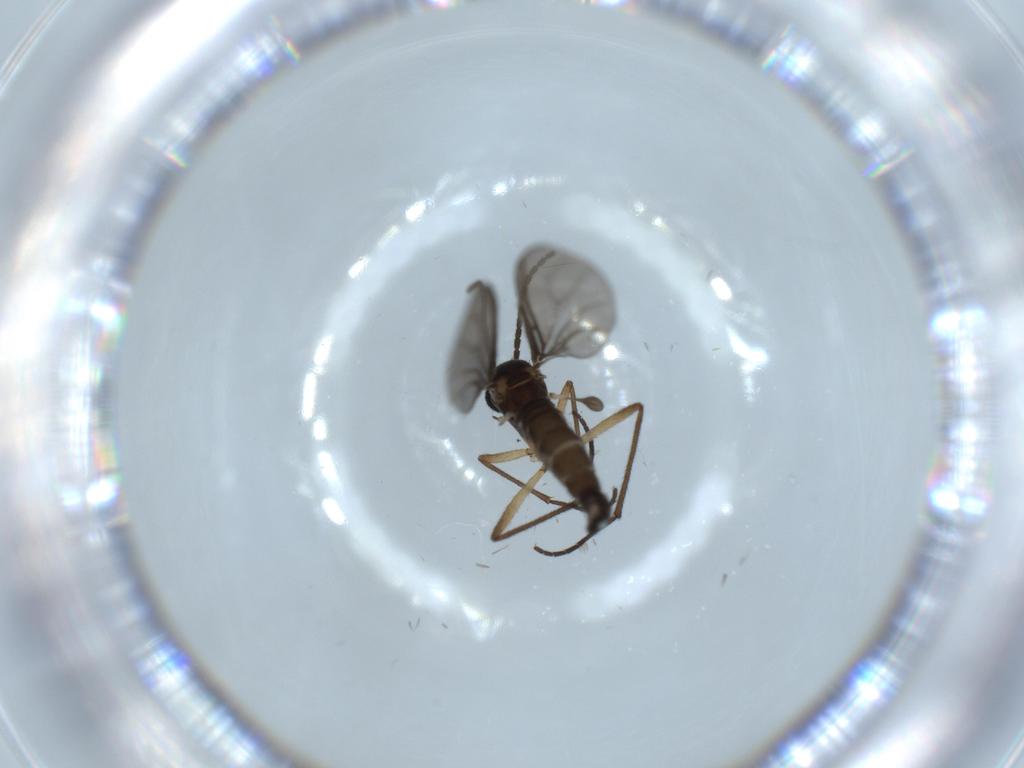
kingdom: Animalia
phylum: Arthropoda
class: Insecta
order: Diptera
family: Sciaridae
